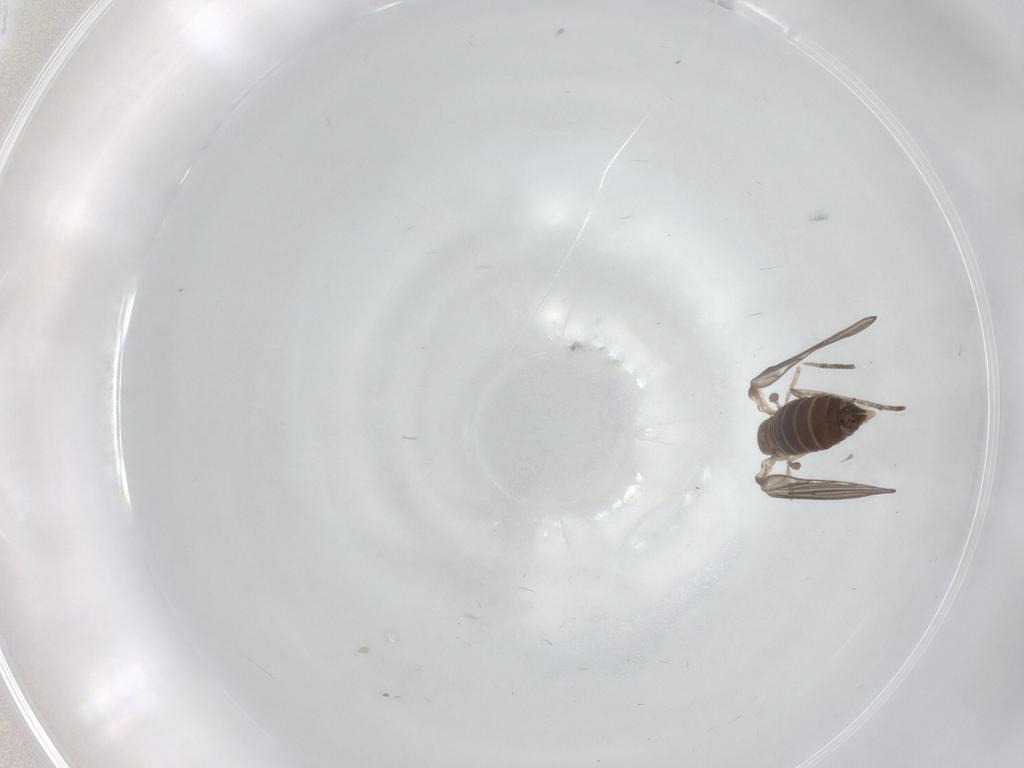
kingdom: Animalia
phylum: Arthropoda
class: Insecta
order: Diptera
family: Psychodidae
